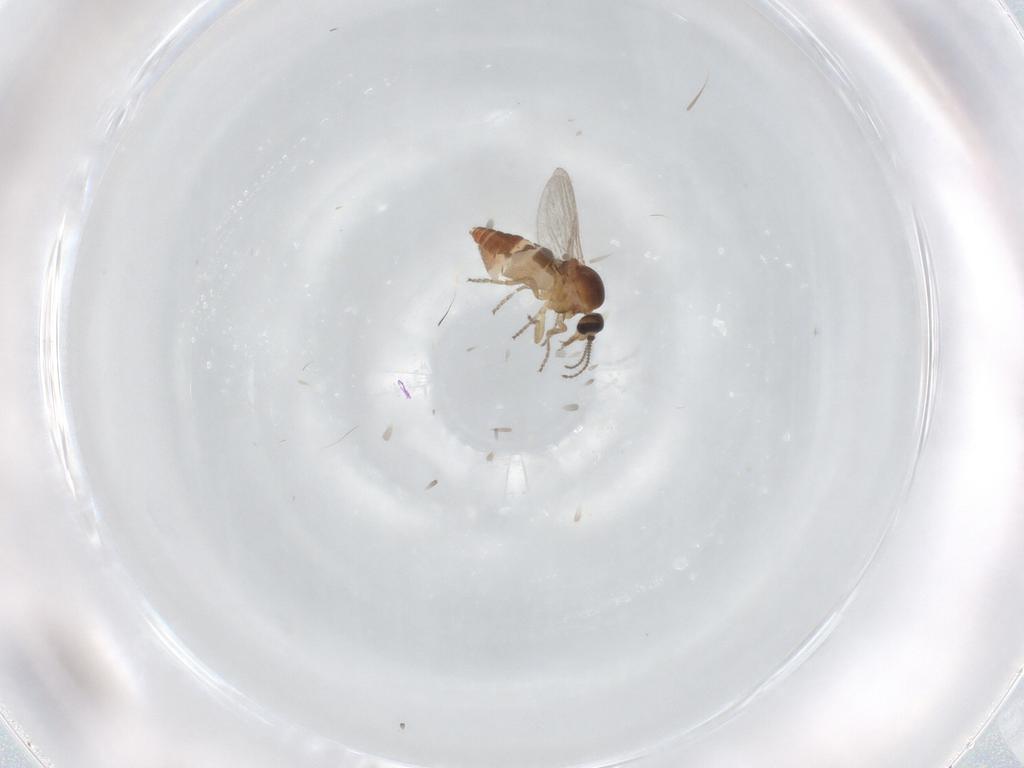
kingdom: Animalia
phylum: Arthropoda
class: Insecta
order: Diptera
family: Ceratopogonidae
